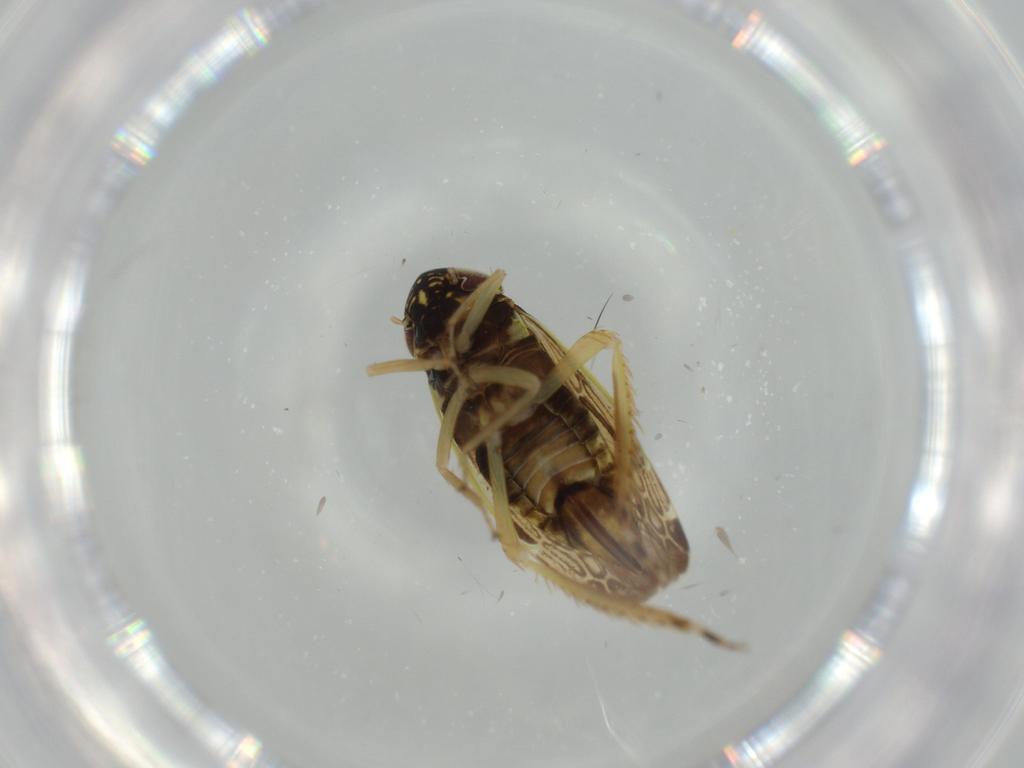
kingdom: Animalia
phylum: Arthropoda
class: Insecta
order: Hemiptera
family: Cicadellidae
